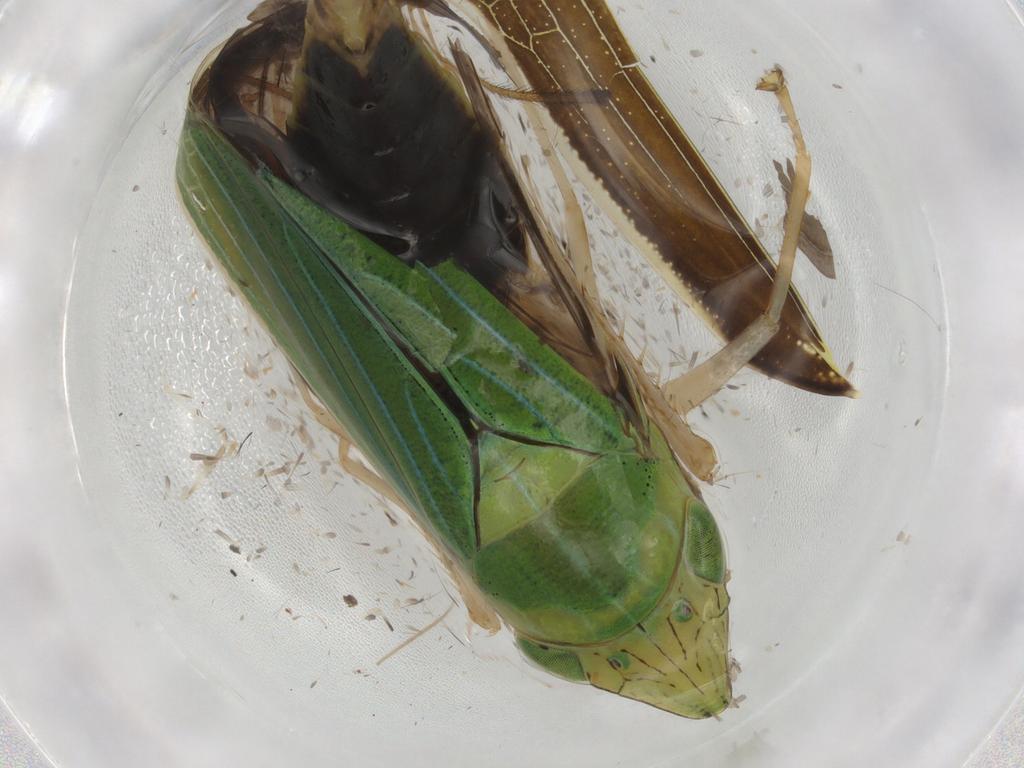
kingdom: Animalia
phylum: Arthropoda
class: Insecta
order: Hemiptera
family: Cicadellidae
